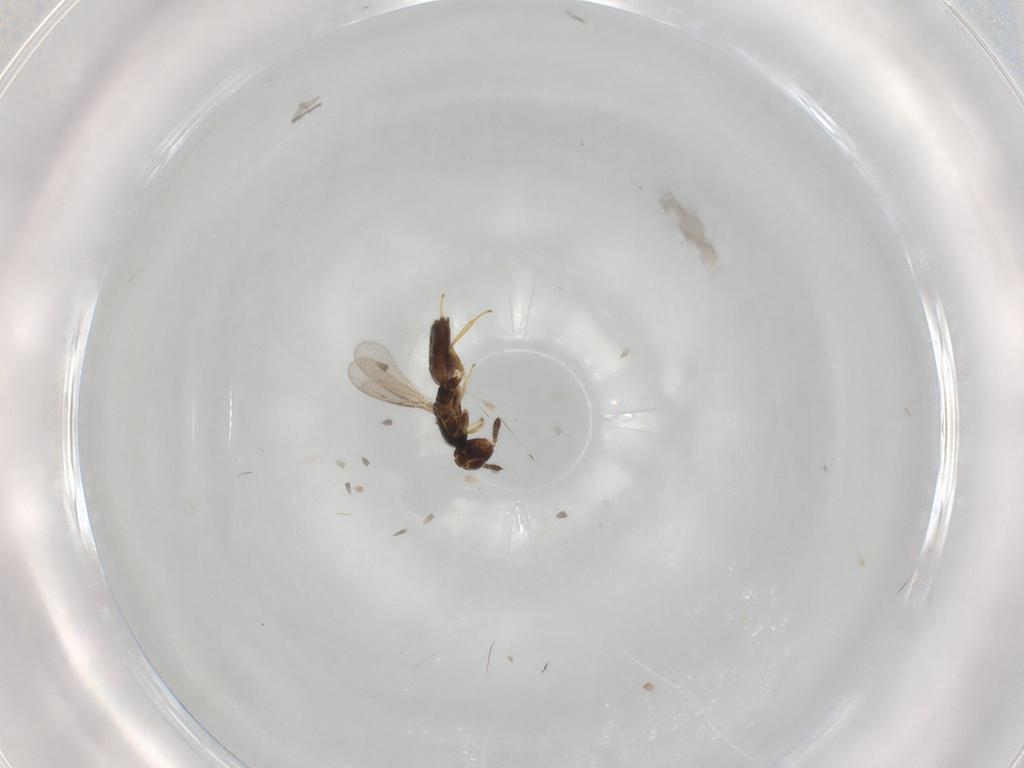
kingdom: Animalia
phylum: Arthropoda
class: Insecta
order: Hymenoptera
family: Eulophidae
